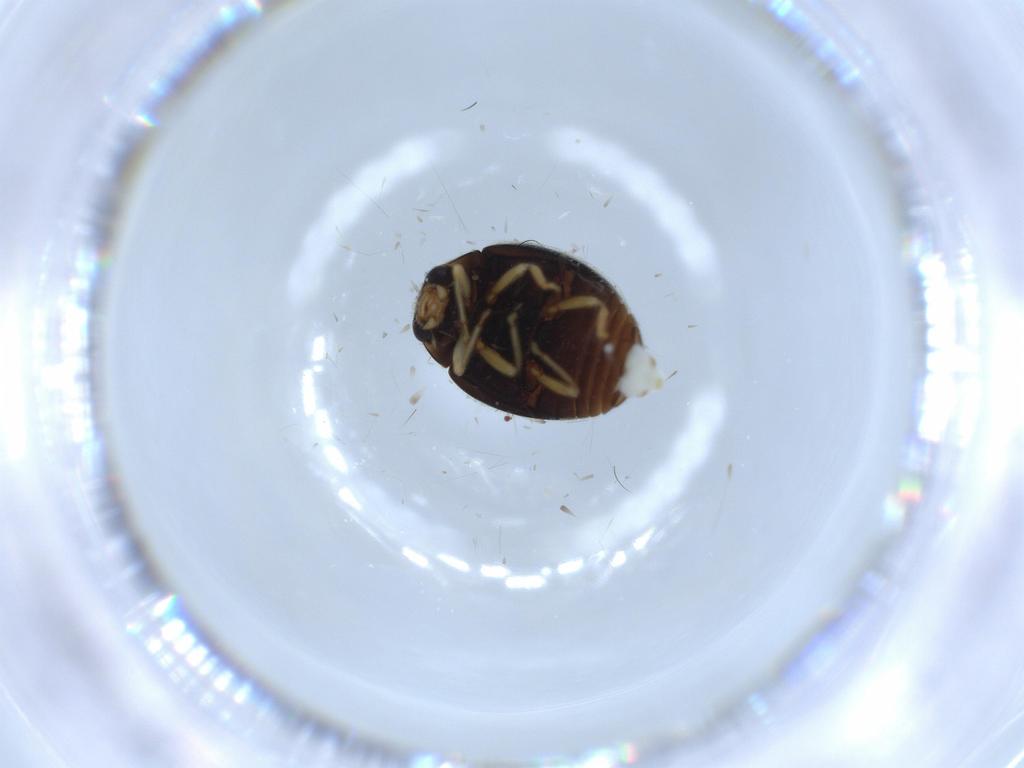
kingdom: Animalia
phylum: Arthropoda
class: Insecta
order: Coleoptera
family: Coccinellidae
